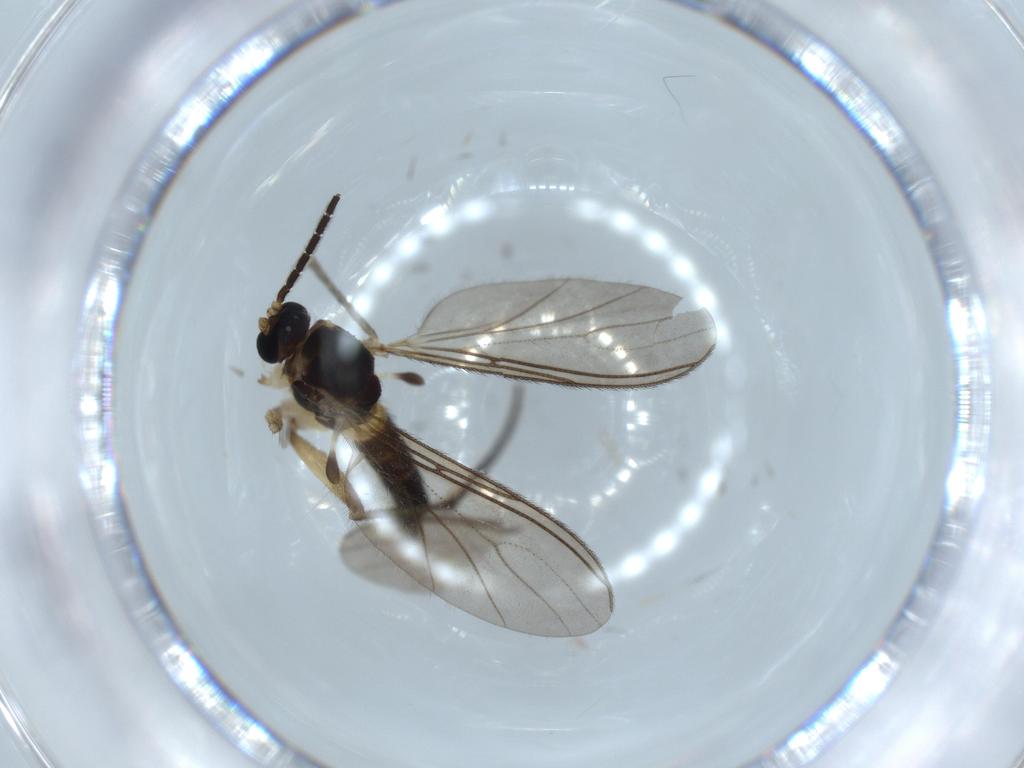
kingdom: Animalia
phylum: Arthropoda
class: Insecta
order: Diptera
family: Sciaridae
